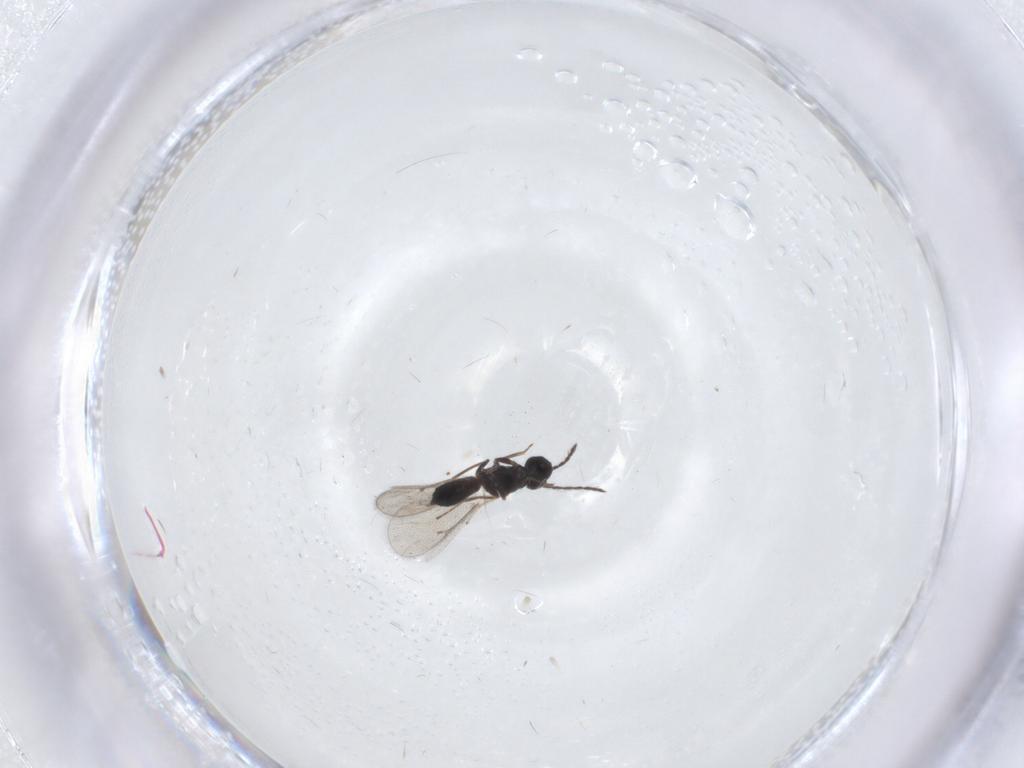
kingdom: Animalia
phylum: Arthropoda
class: Insecta
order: Hymenoptera
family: Eulophidae
